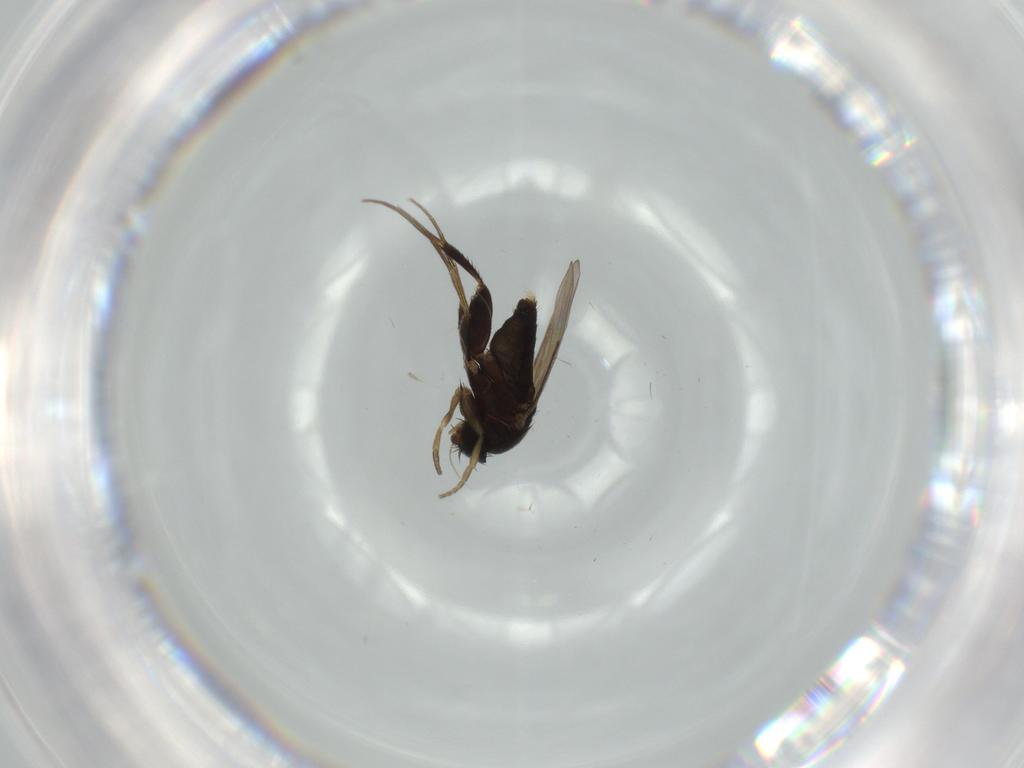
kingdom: Animalia
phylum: Arthropoda
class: Insecta
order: Diptera
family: Phoridae
